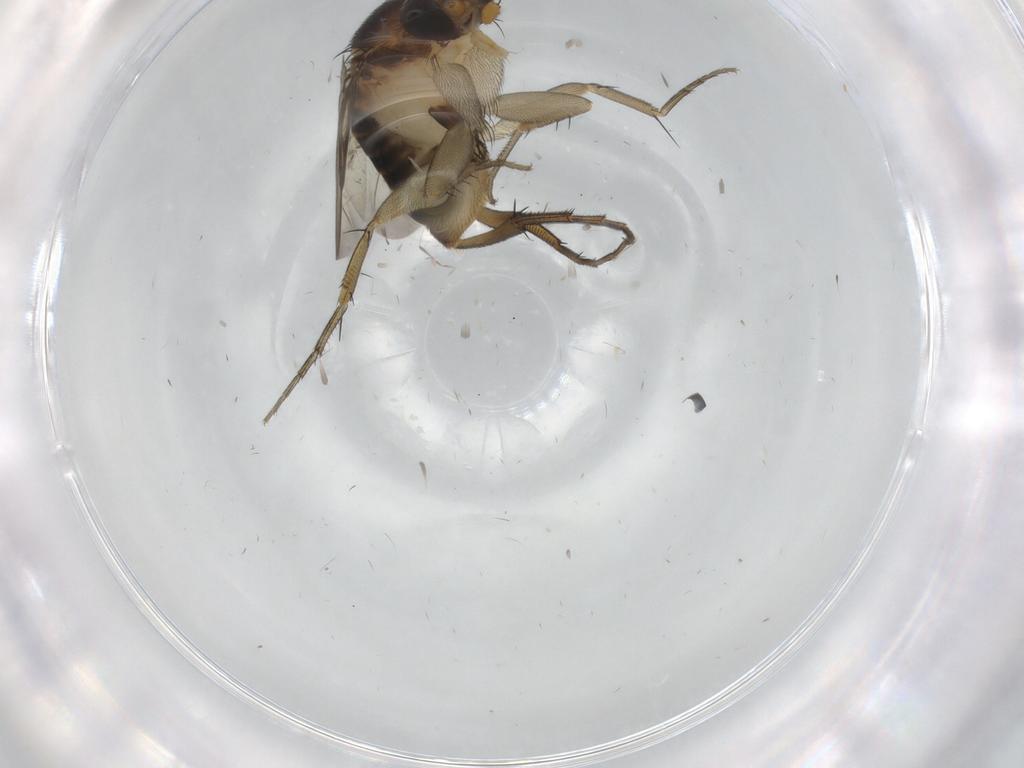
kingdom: Animalia
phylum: Arthropoda
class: Insecta
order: Diptera
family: Phoridae
